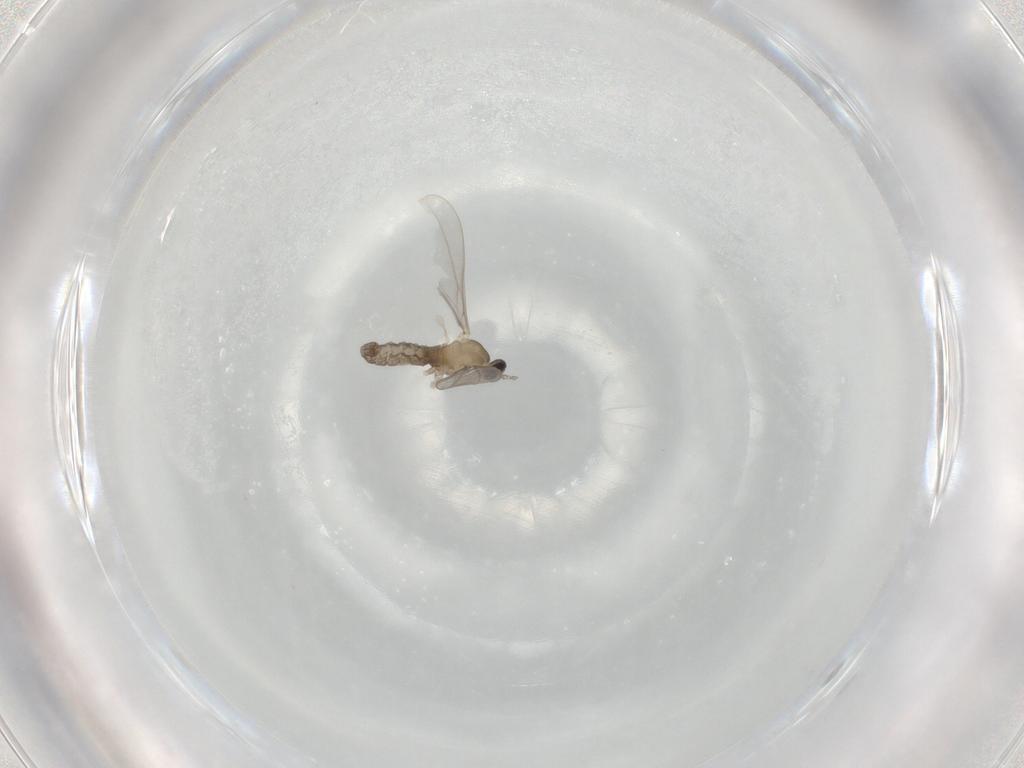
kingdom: Animalia
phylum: Arthropoda
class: Insecta
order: Diptera
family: Cecidomyiidae
